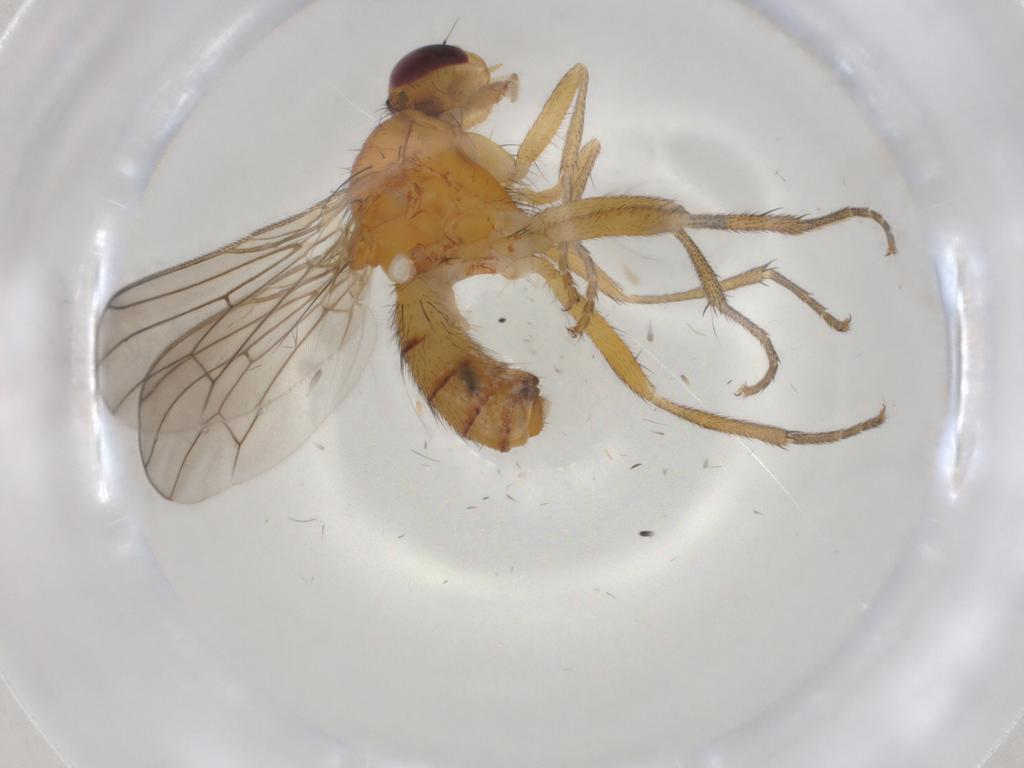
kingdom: Animalia
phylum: Arthropoda
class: Insecta
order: Diptera
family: Scathophagidae
